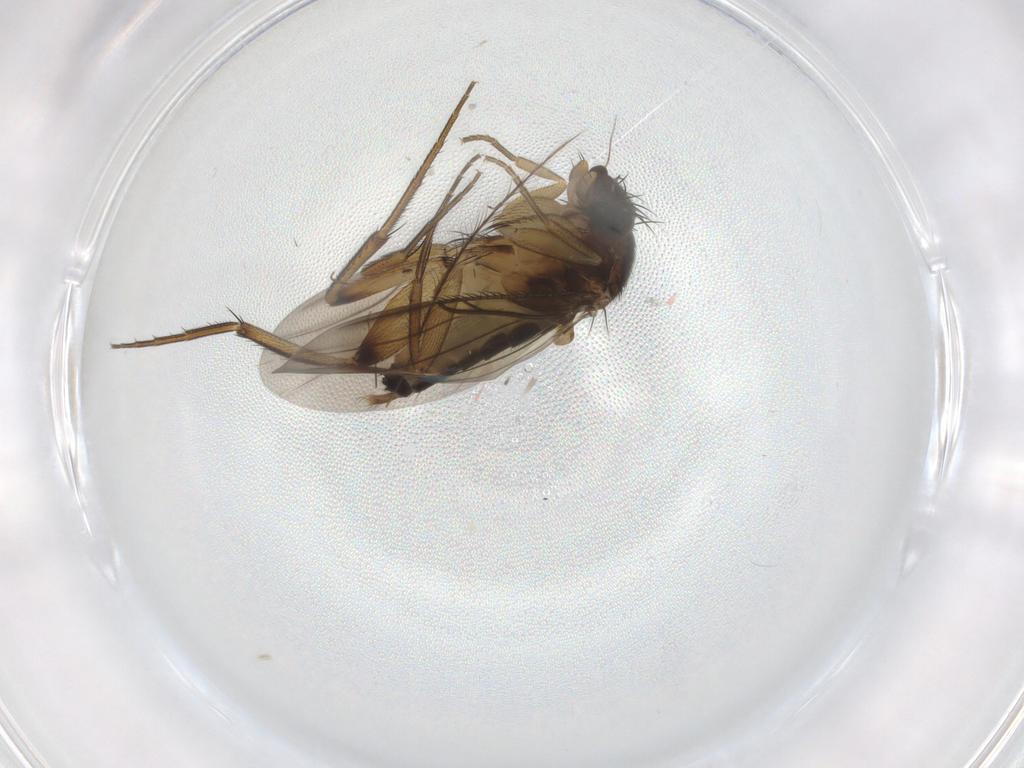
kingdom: Animalia
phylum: Arthropoda
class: Insecta
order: Diptera
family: Phoridae
